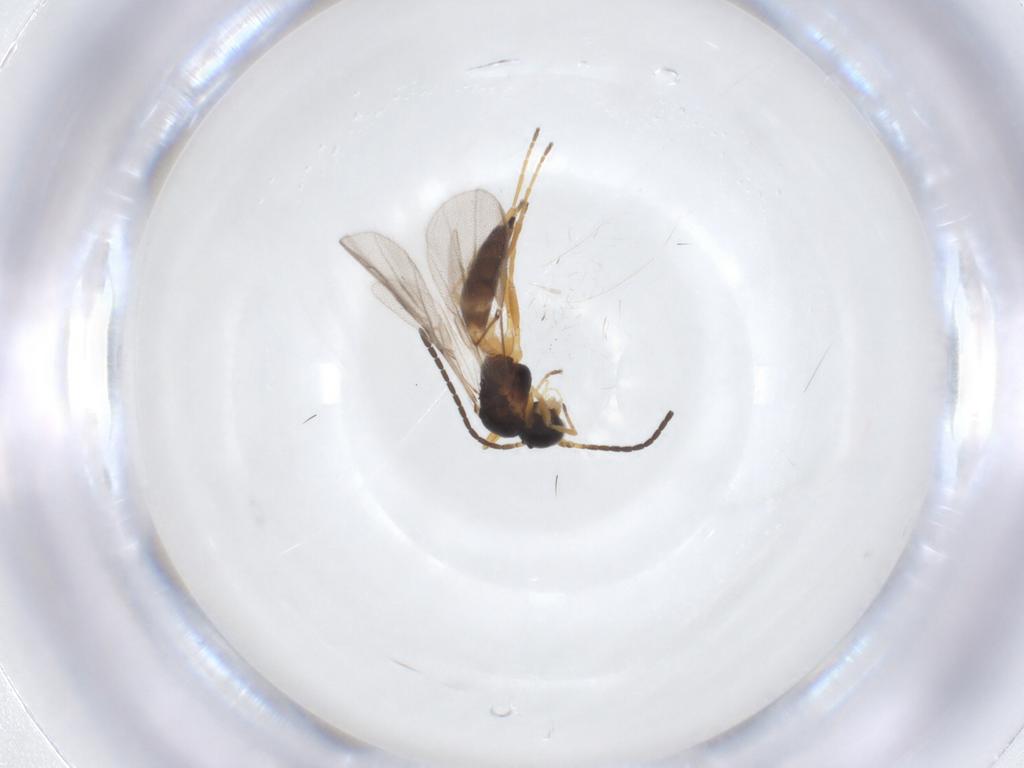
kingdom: Animalia
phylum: Arthropoda
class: Insecta
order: Hymenoptera
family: Braconidae
